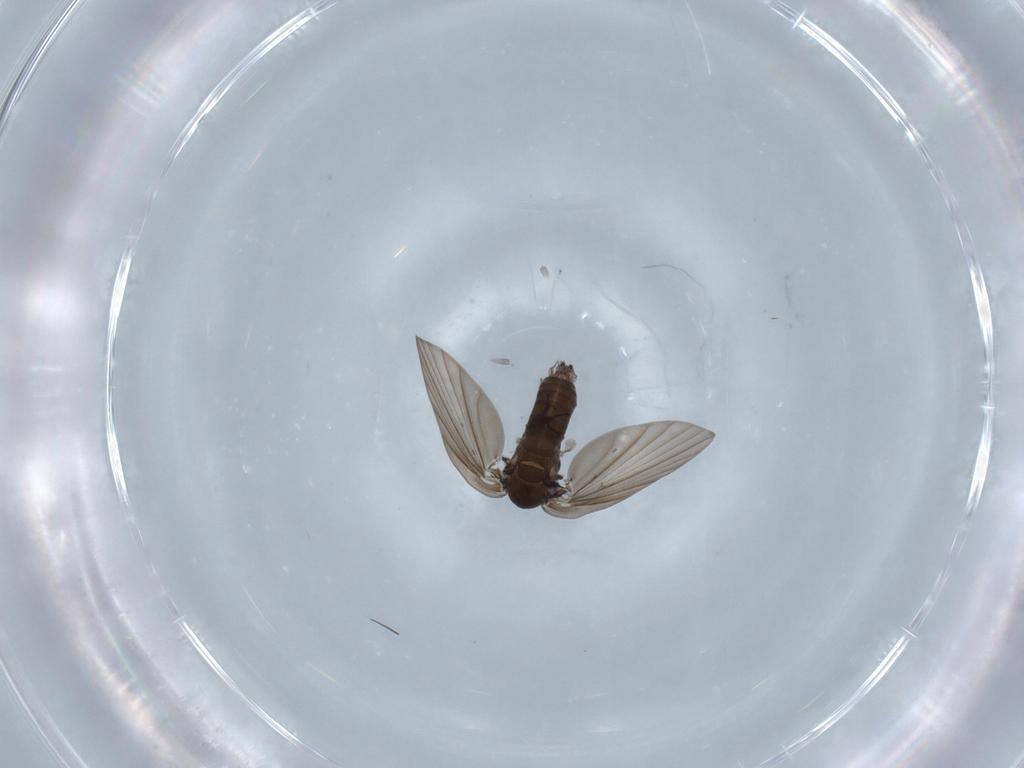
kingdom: Animalia
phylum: Arthropoda
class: Insecta
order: Diptera
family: Psychodidae
